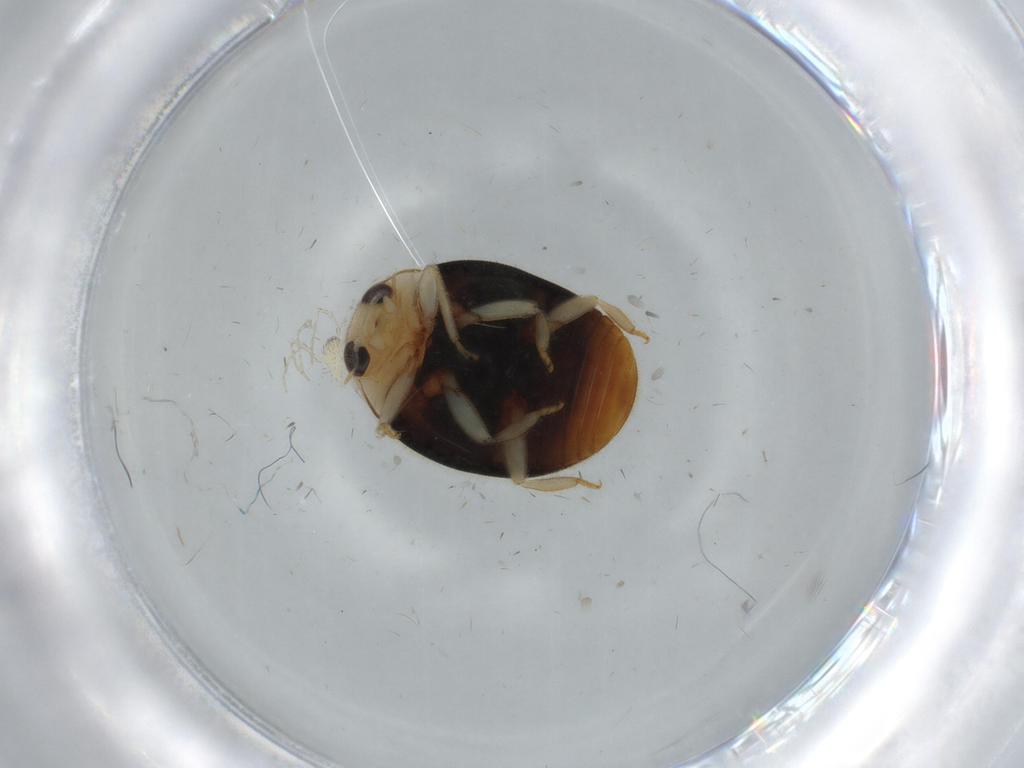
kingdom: Animalia
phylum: Arthropoda
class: Insecta
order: Coleoptera
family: Coccinellidae
